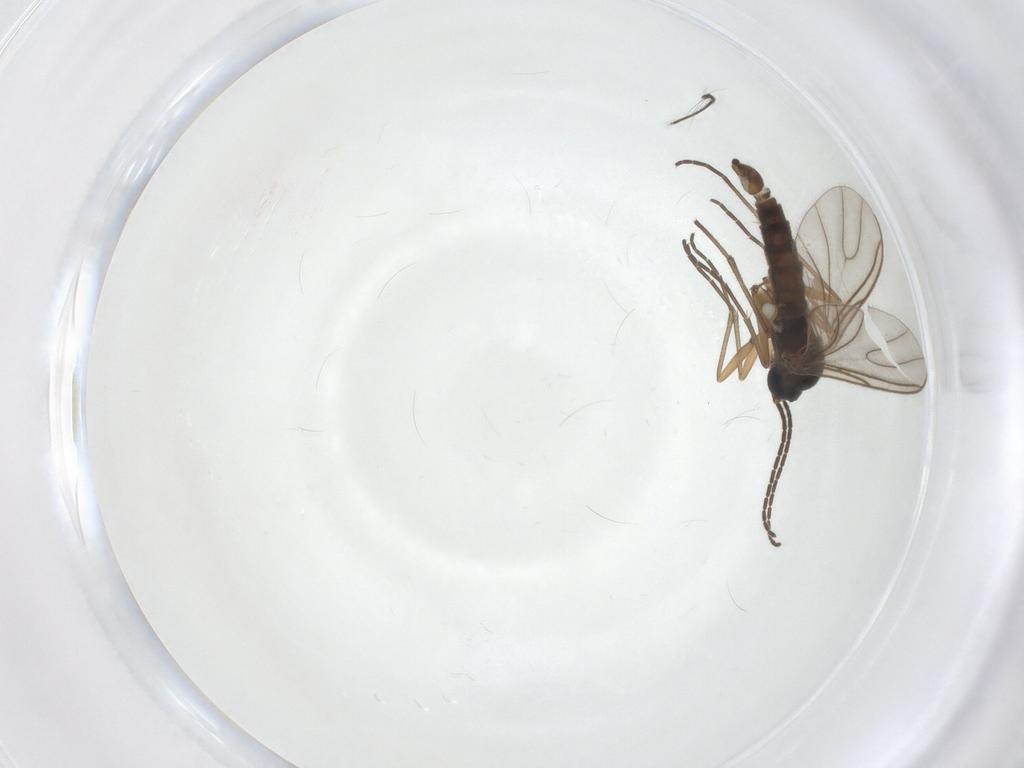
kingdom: Animalia
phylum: Arthropoda
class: Insecta
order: Diptera
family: Chironomidae
